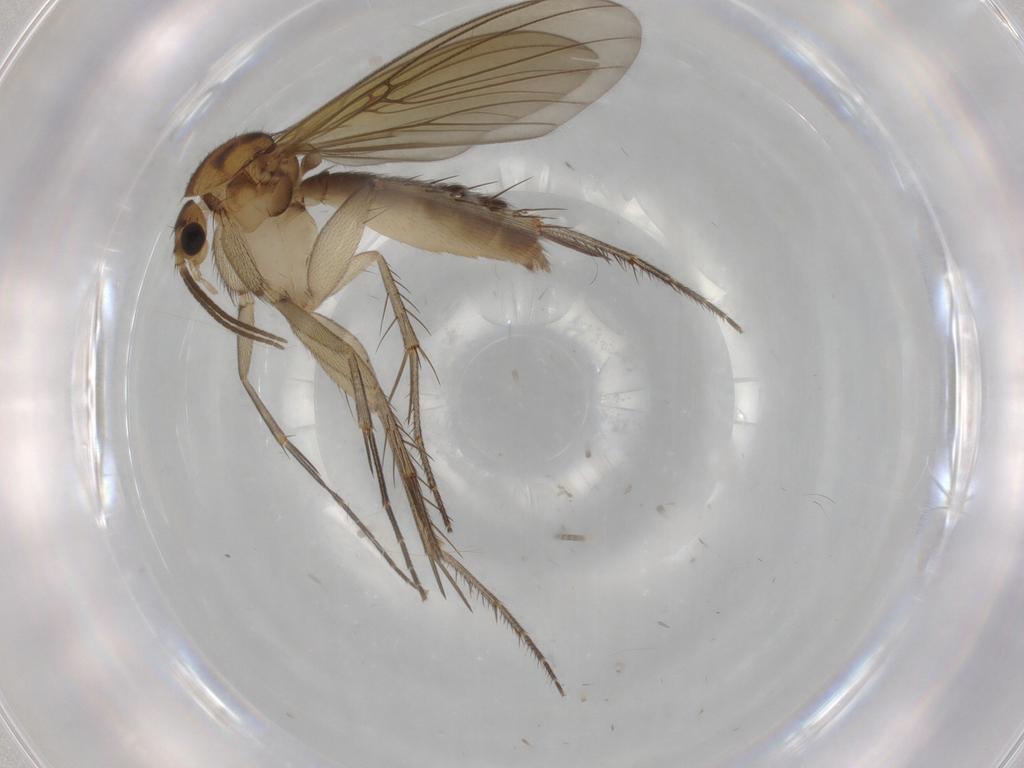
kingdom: Animalia
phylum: Arthropoda
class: Insecta
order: Diptera
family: Mycetophilidae
